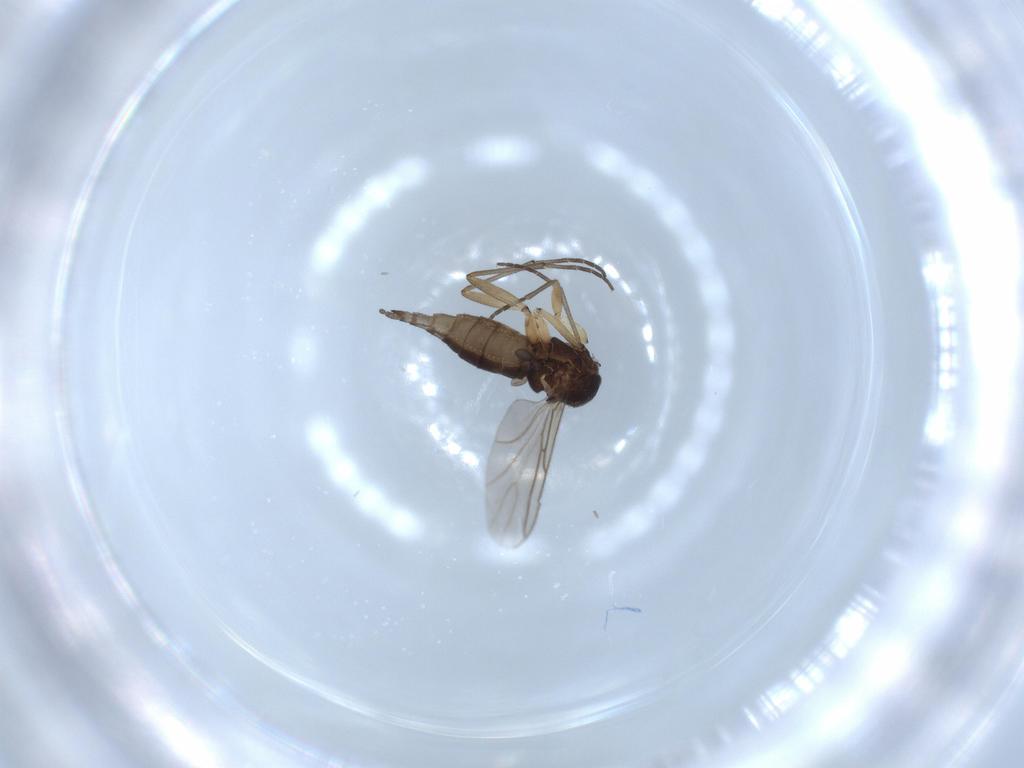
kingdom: Animalia
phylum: Arthropoda
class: Insecta
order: Diptera
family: Sciaridae
